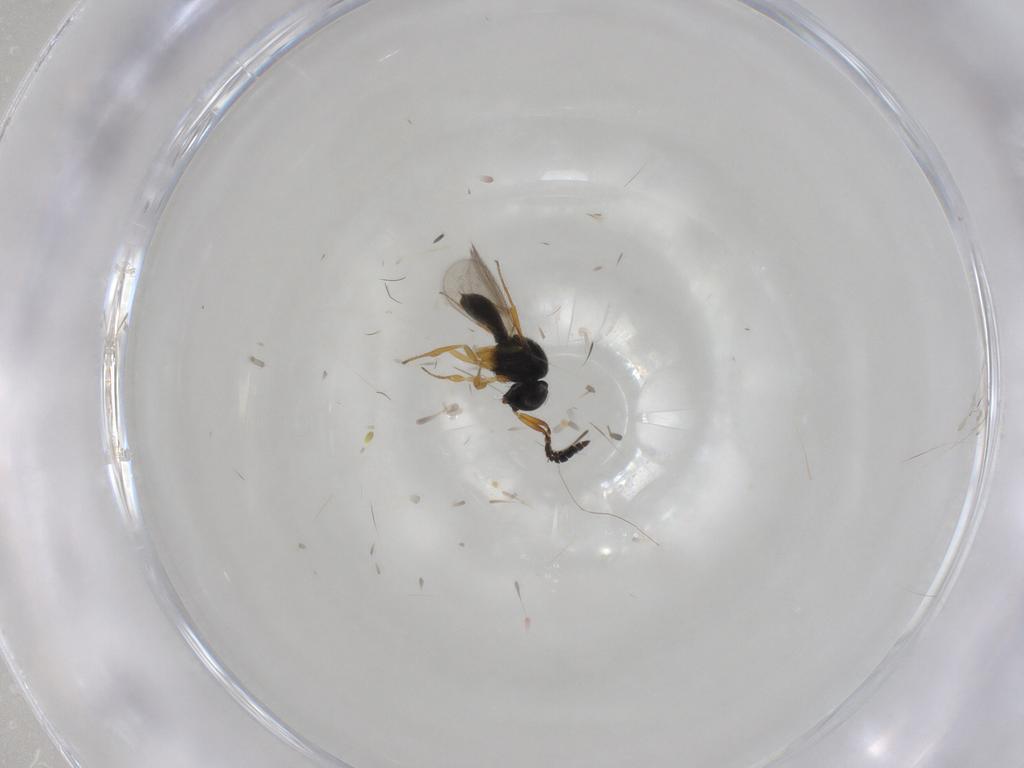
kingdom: Animalia
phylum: Arthropoda
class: Insecta
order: Hymenoptera
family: Scelionidae
